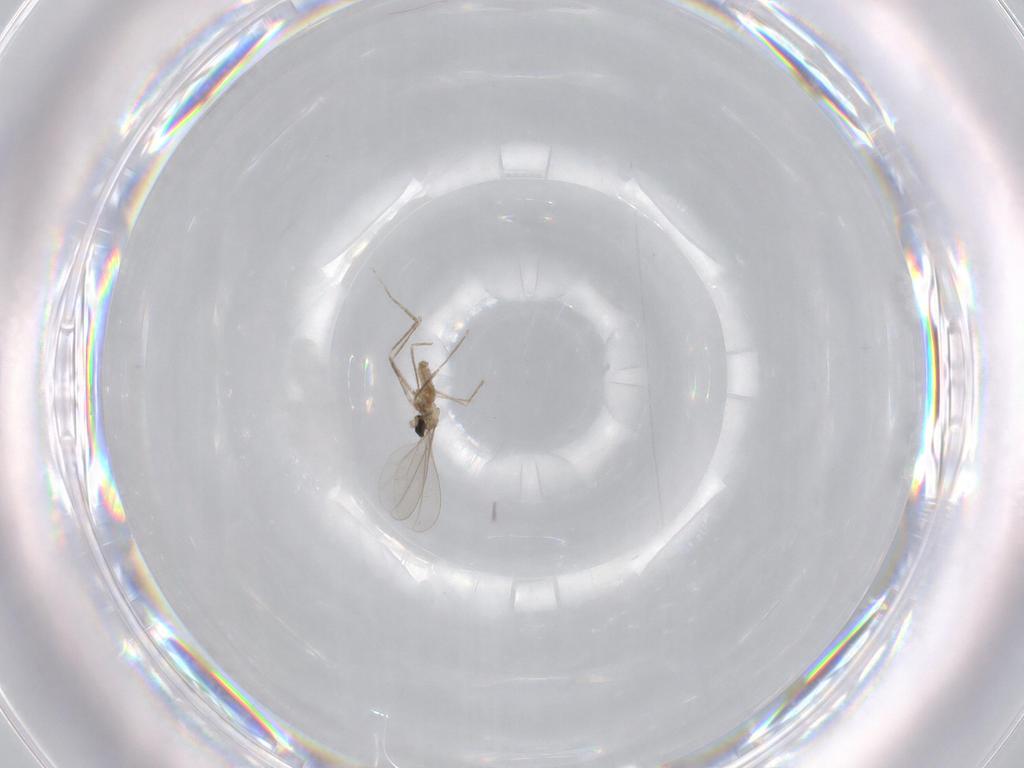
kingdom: Animalia
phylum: Arthropoda
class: Insecta
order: Diptera
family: Cecidomyiidae
